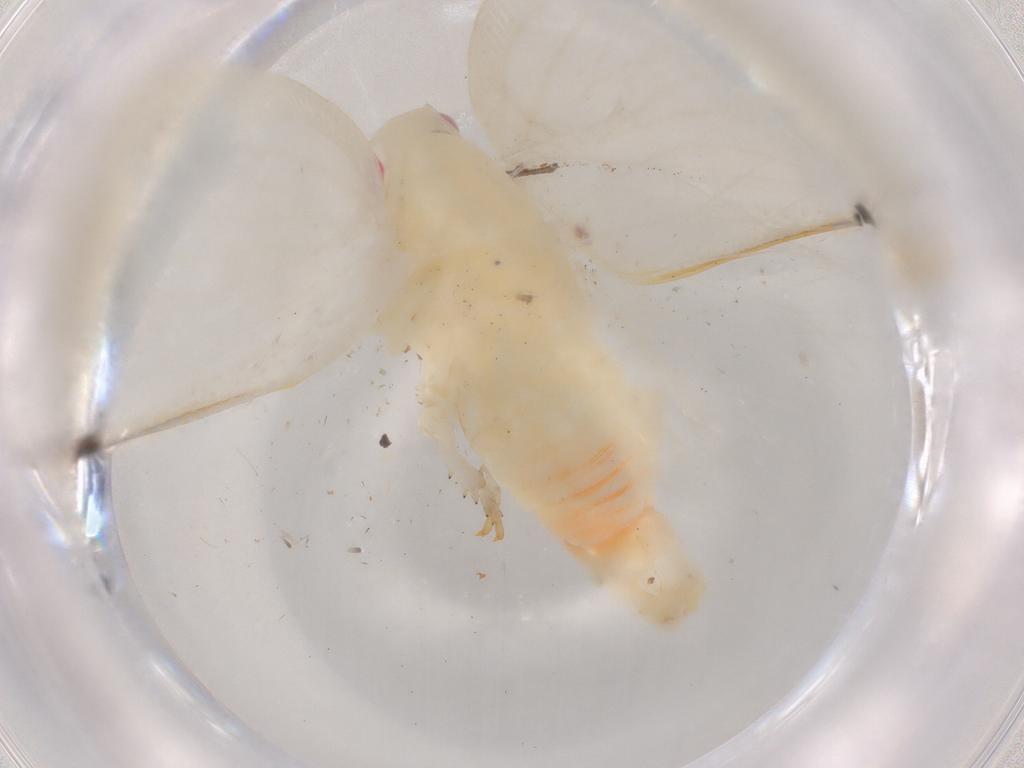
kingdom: Animalia
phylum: Arthropoda
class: Insecta
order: Hemiptera
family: Flatidae
